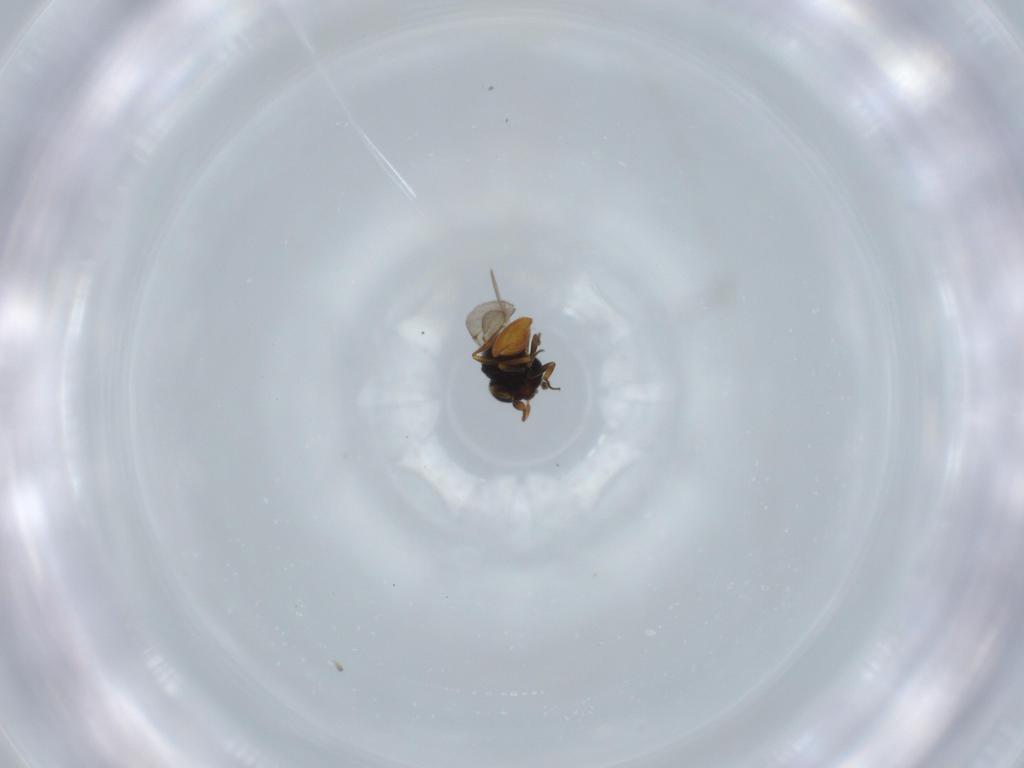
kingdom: Animalia
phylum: Arthropoda
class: Insecta
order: Hymenoptera
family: Scelionidae
